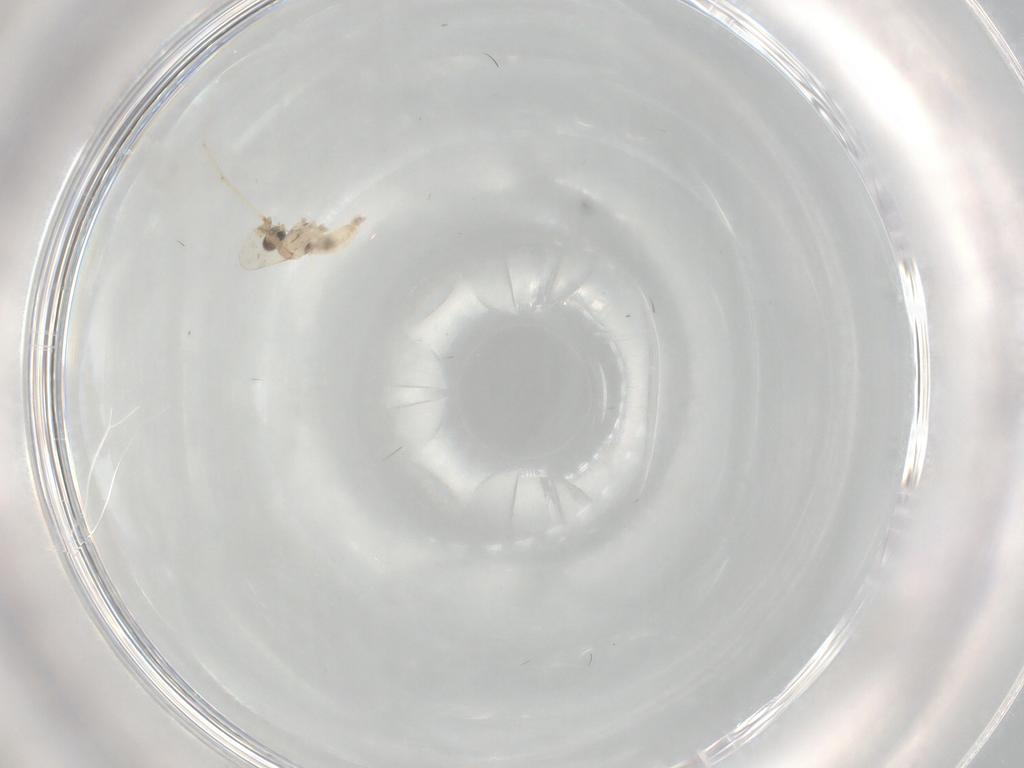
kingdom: Animalia
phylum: Arthropoda
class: Insecta
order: Diptera
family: Cecidomyiidae
